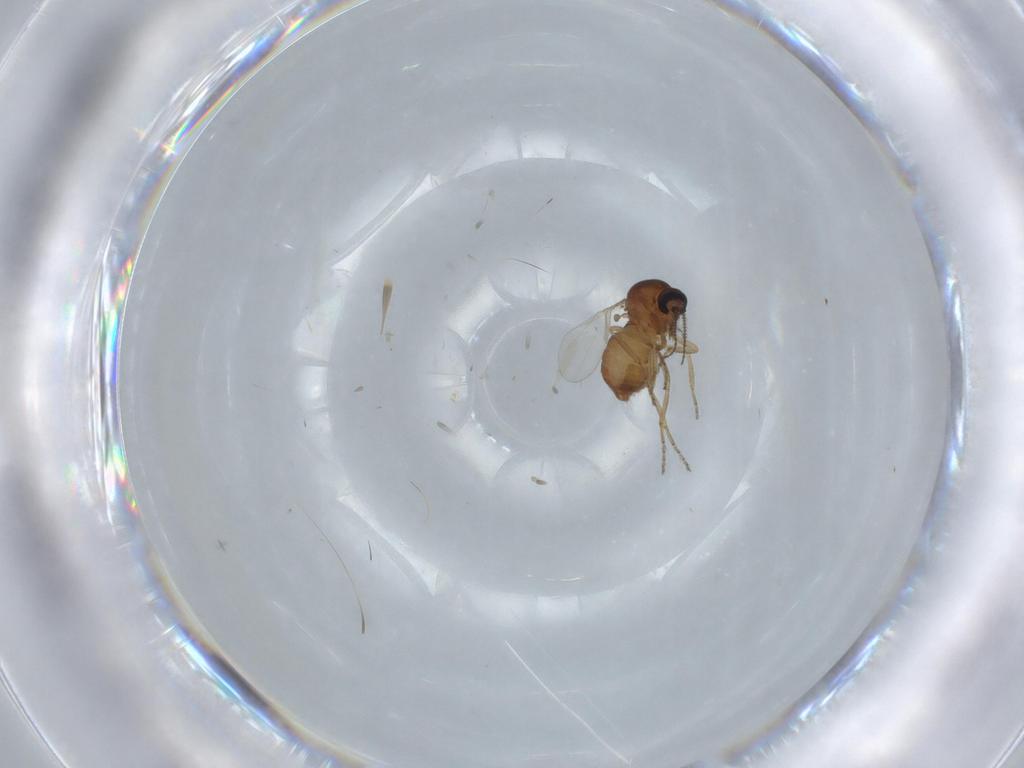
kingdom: Animalia
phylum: Arthropoda
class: Insecta
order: Diptera
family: Ceratopogonidae
